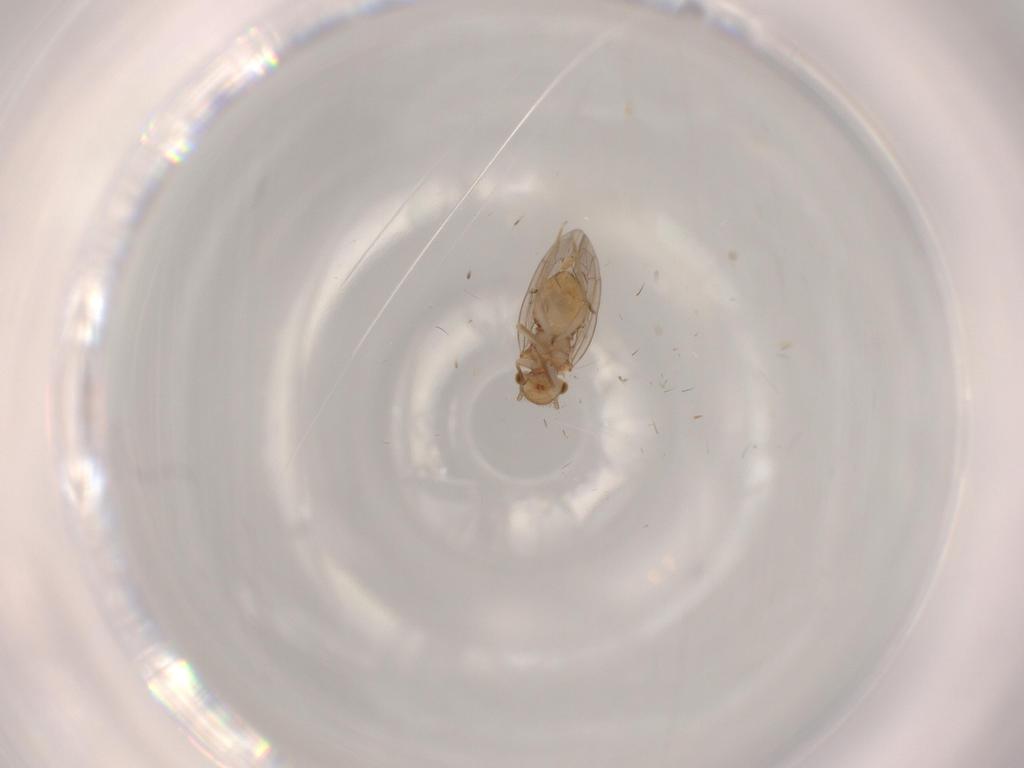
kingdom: Animalia
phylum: Arthropoda
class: Insecta
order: Psocodea
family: Ectopsocidae
